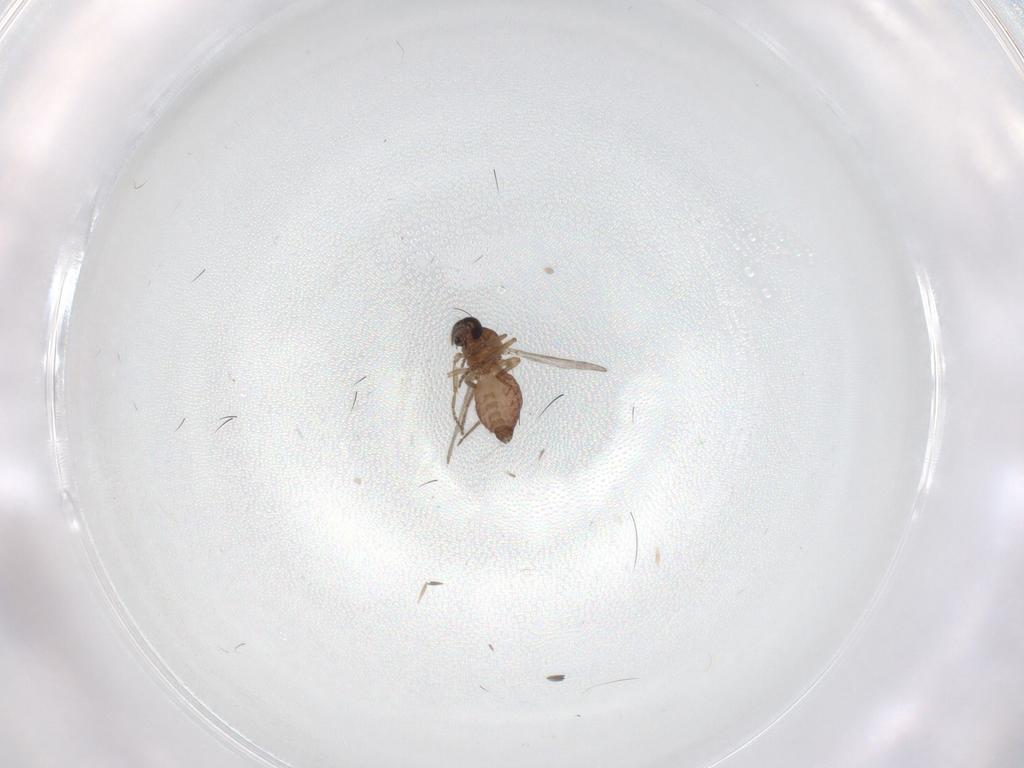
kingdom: Animalia
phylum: Arthropoda
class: Insecta
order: Diptera
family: Ceratopogonidae
